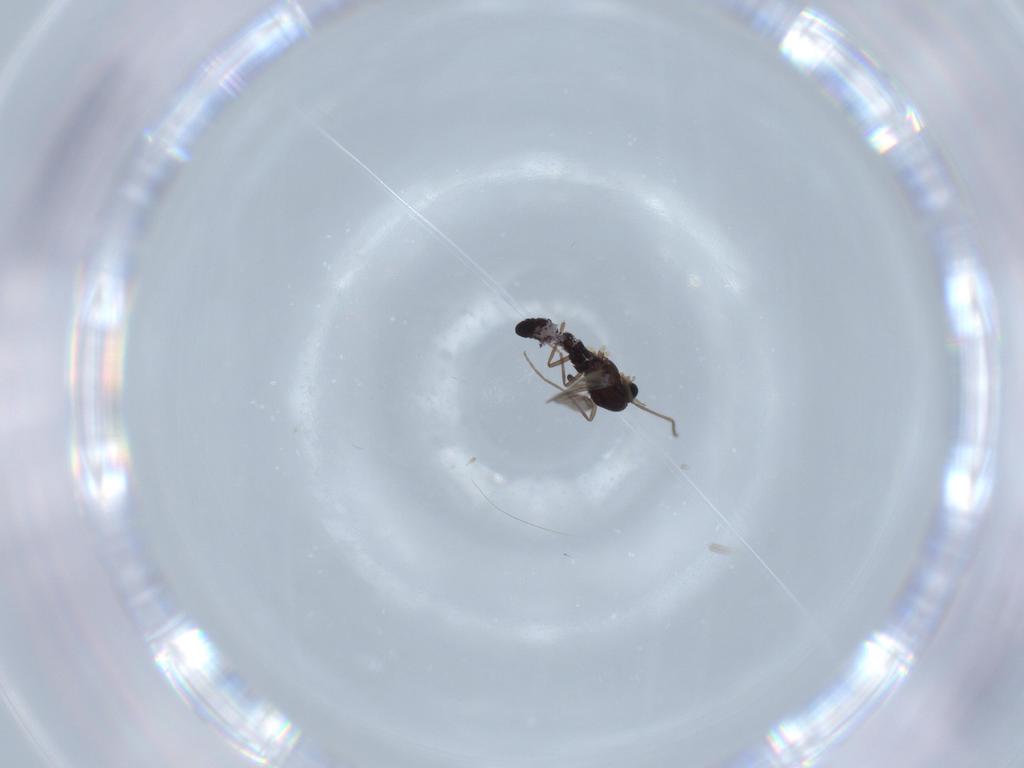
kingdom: Animalia
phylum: Arthropoda
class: Insecta
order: Diptera
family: Chironomidae
